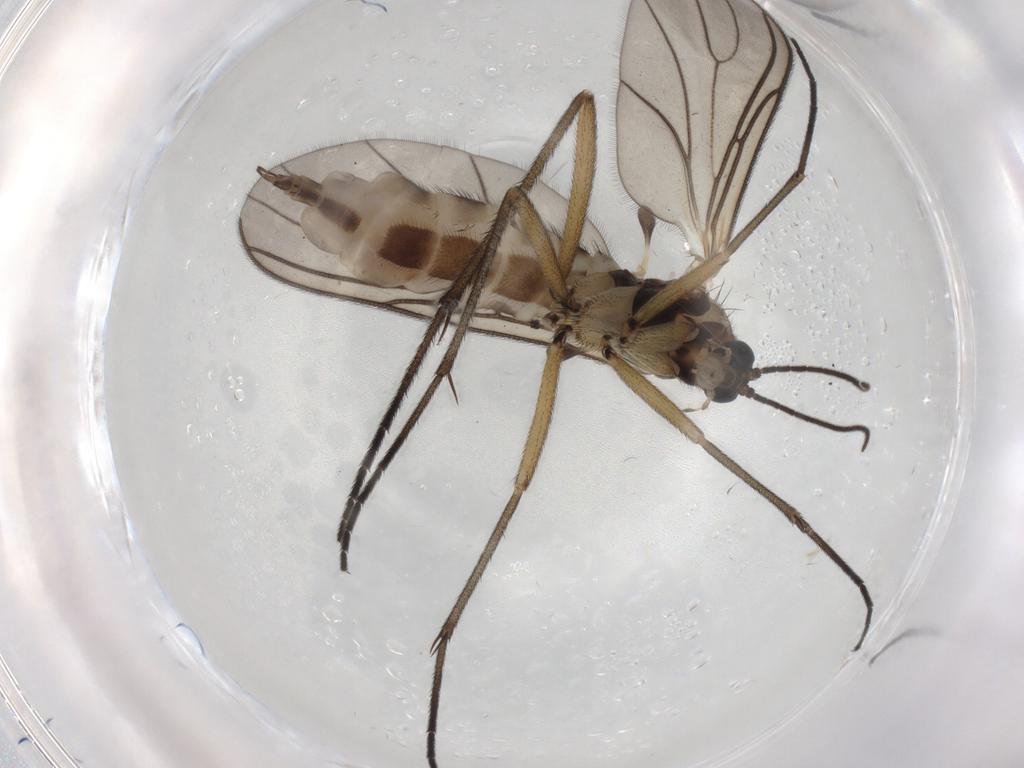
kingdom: Animalia
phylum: Arthropoda
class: Insecta
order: Diptera
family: Sciaridae
